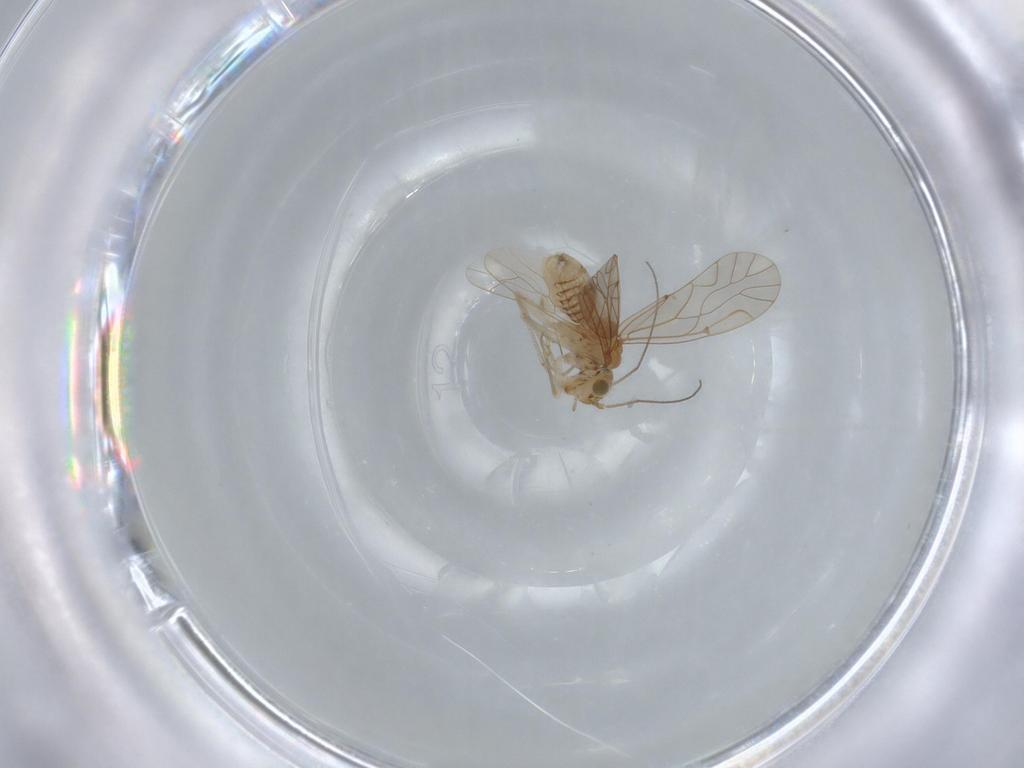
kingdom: Animalia
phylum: Arthropoda
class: Insecta
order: Psocodea
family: Lachesillidae
